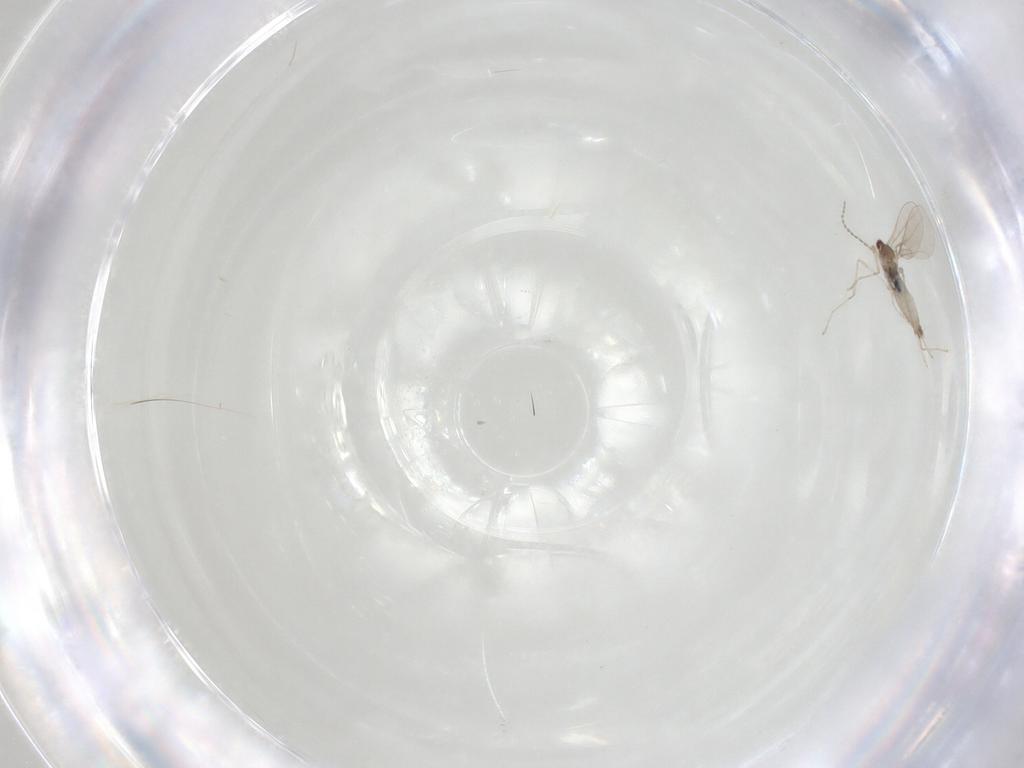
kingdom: Animalia
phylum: Arthropoda
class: Insecta
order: Diptera
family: Cecidomyiidae
